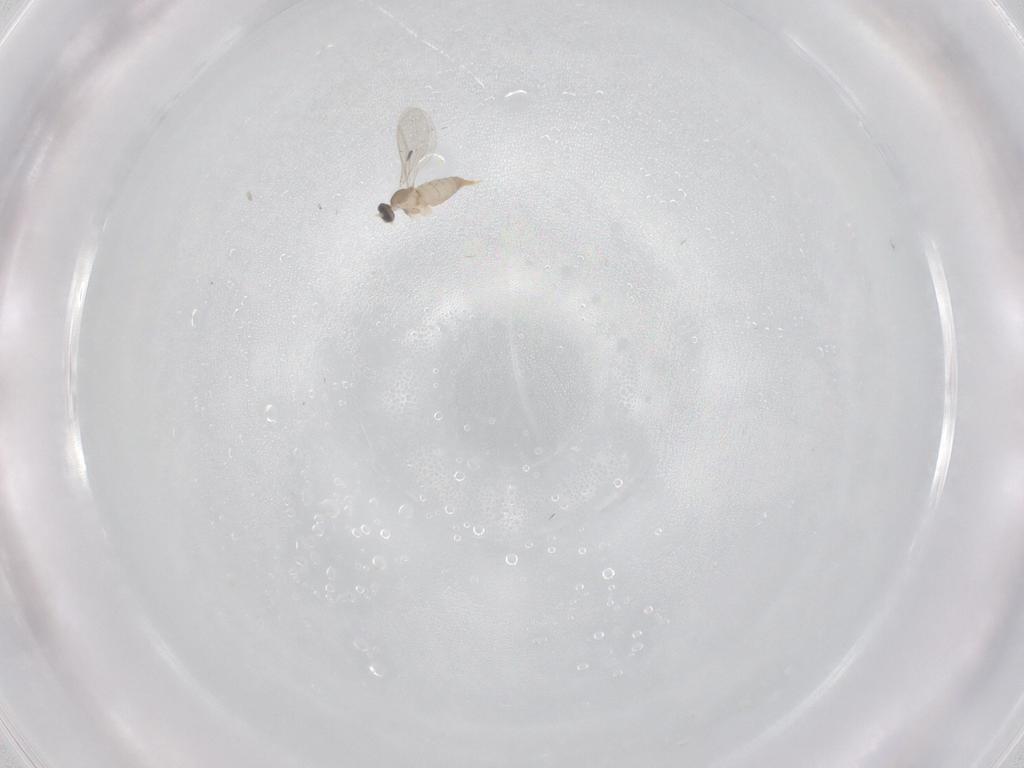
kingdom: Animalia
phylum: Arthropoda
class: Insecta
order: Diptera
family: Cecidomyiidae
